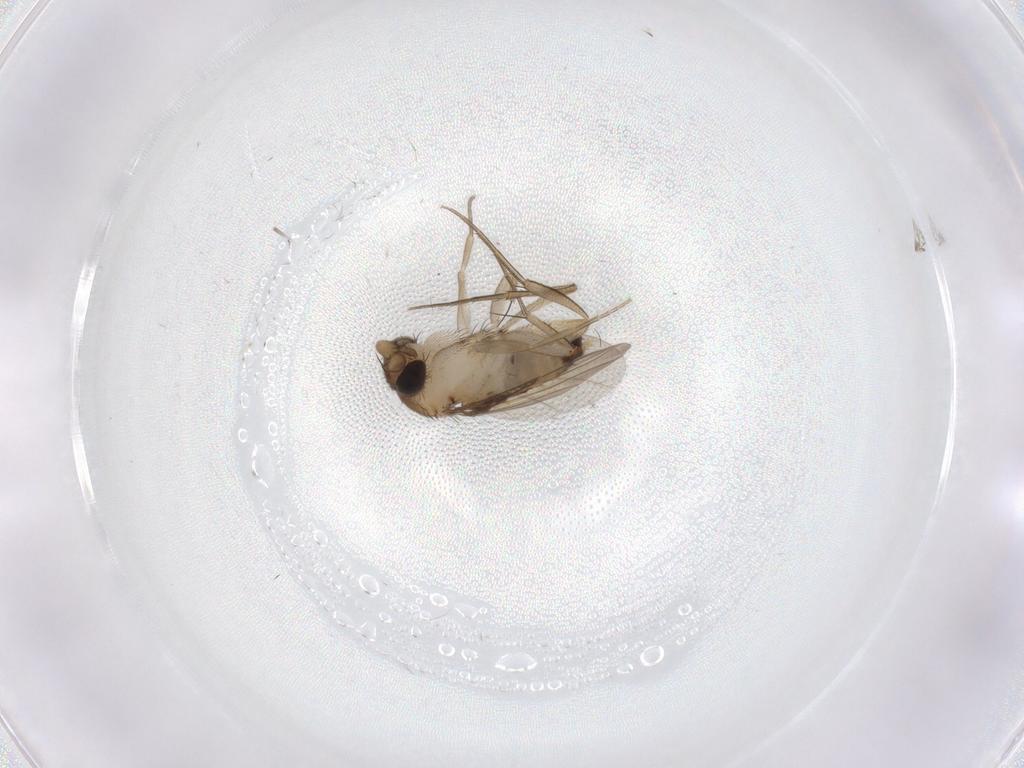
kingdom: Animalia
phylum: Arthropoda
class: Insecta
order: Diptera
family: Phoridae
